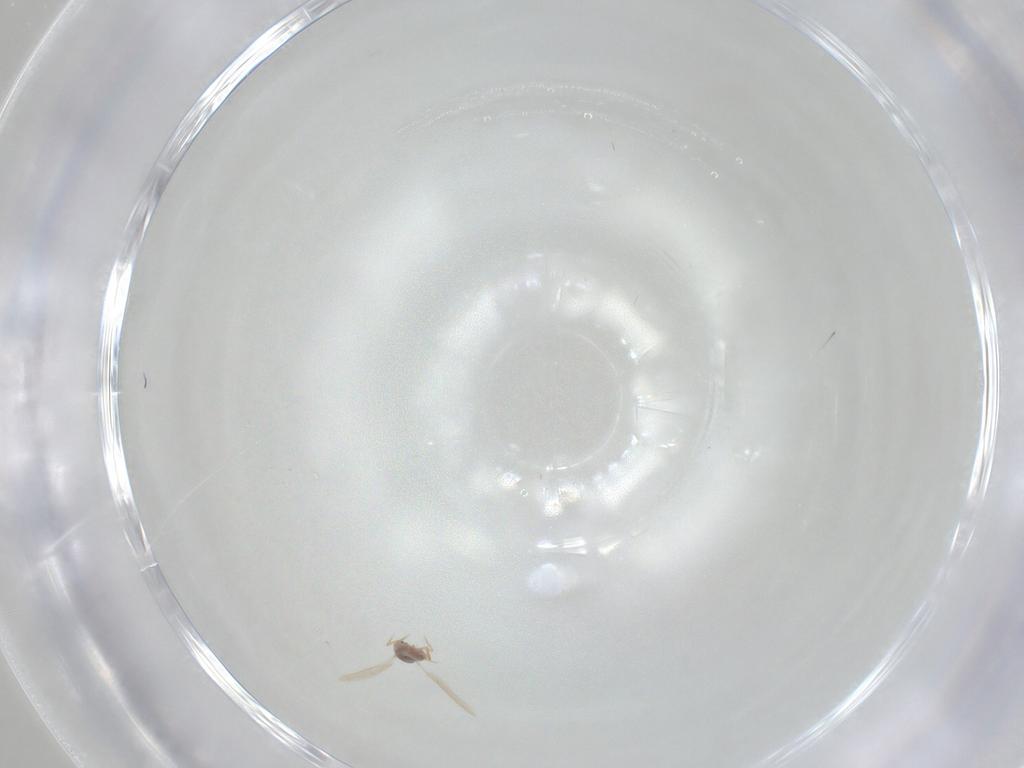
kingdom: Animalia
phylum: Arthropoda
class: Insecta
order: Hemiptera
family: Diaspididae
